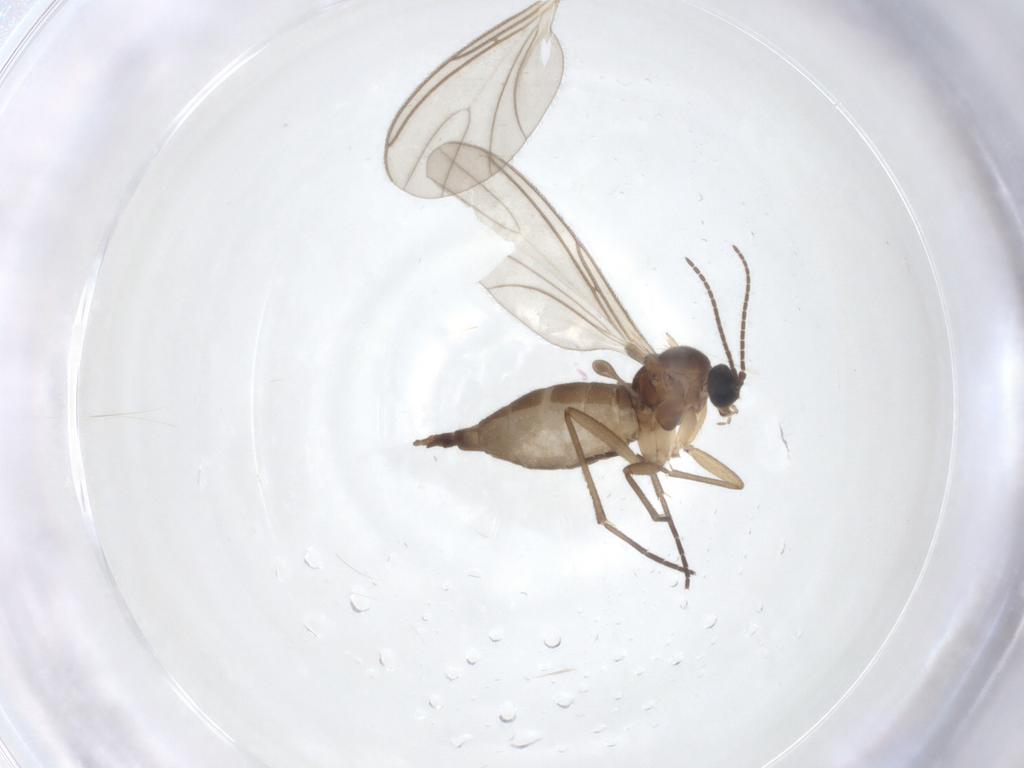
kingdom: Animalia
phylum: Arthropoda
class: Insecta
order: Diptera
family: Sciaridae
